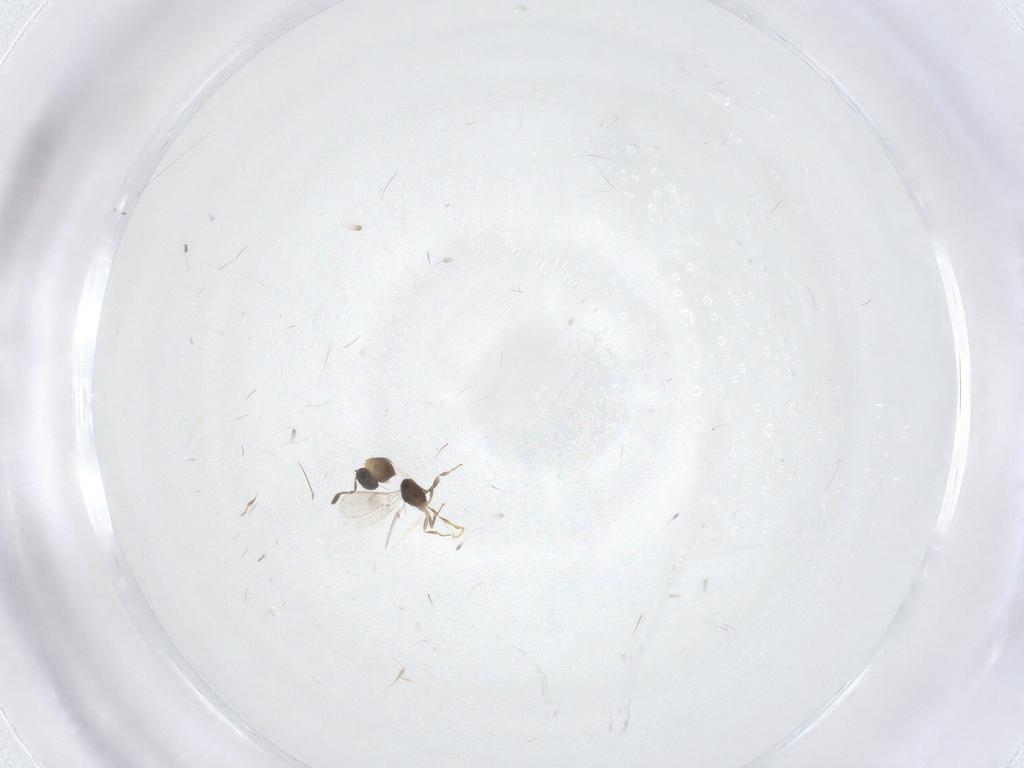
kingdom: Animalia
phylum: Arthropoda
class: Insecta
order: Hymenoptera
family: Scelionidae
